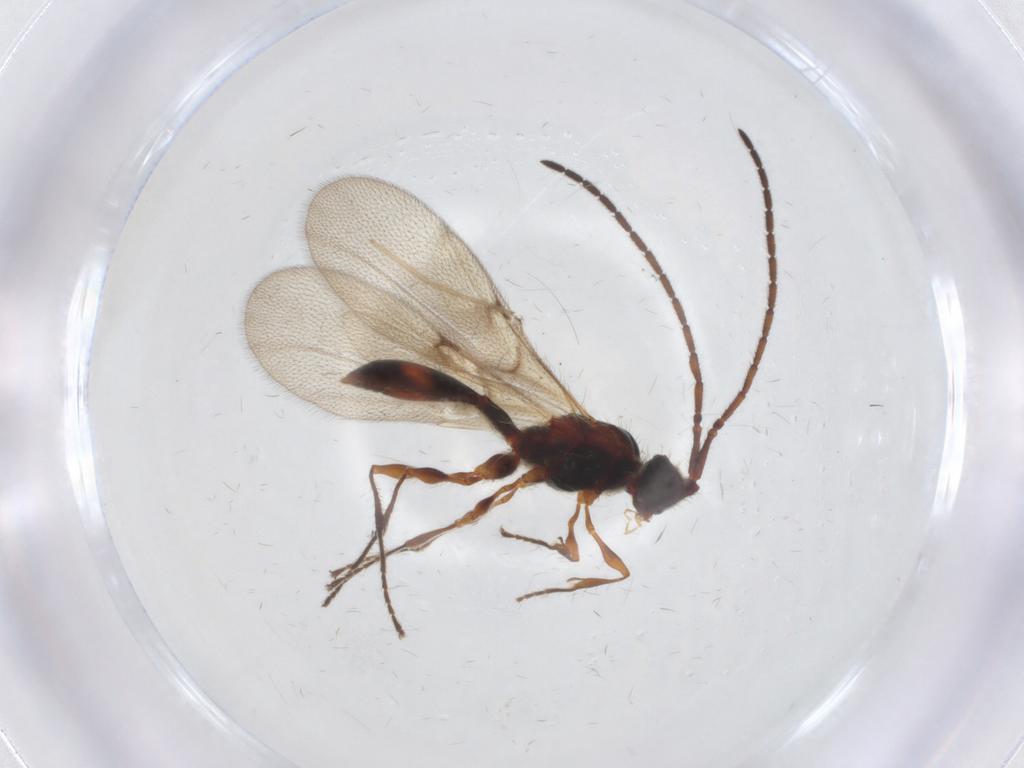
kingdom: Animalia
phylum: Arthropoda
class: Insecta
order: Hymenoptera
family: Diapriidae
